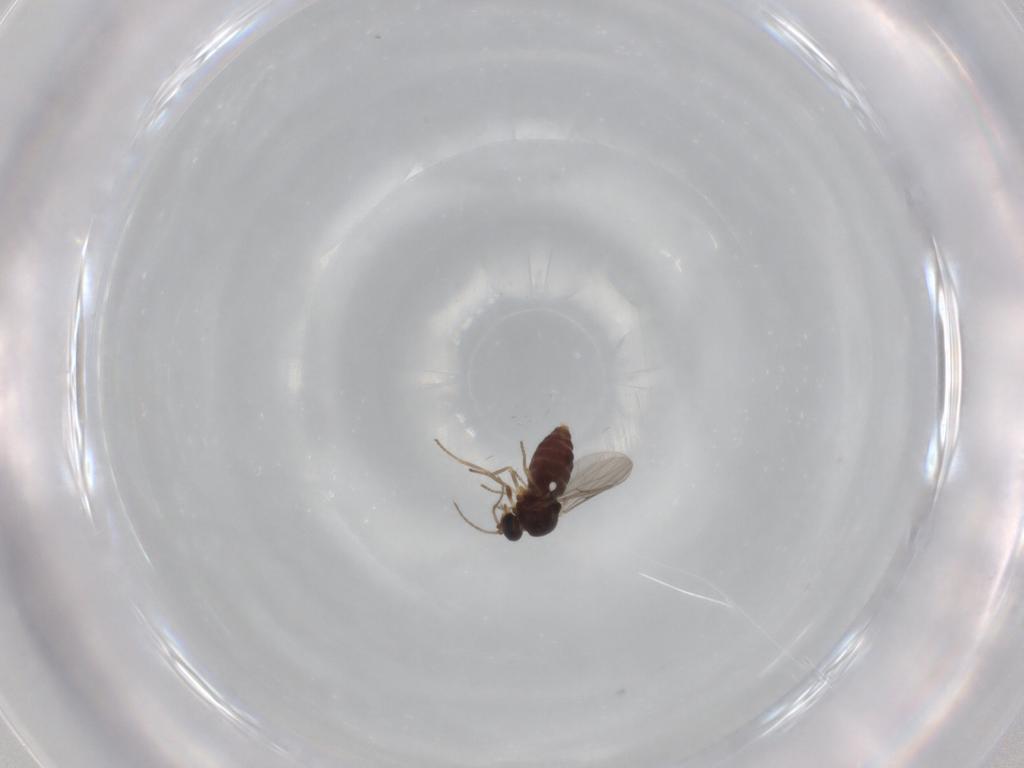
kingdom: Animalia
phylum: Arthropoda
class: Insecta
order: Diptera
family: Ceratopogonidae
